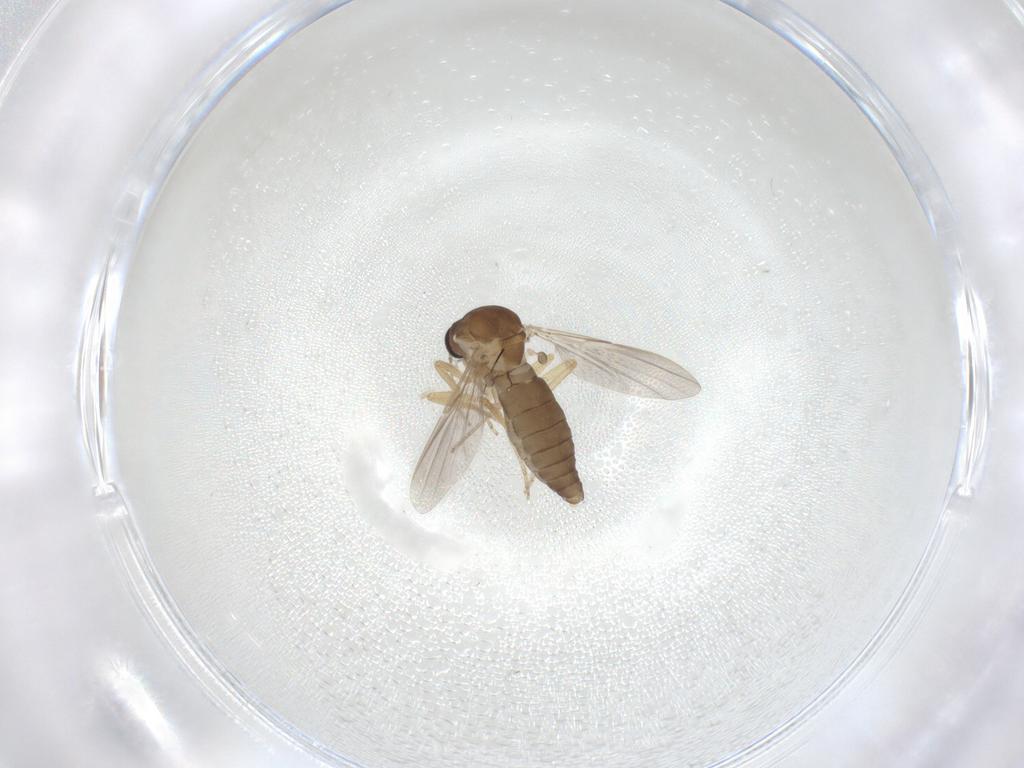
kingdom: Animalia
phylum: Arthropoda
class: Insecta
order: Diptera
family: Ceratopogonidae
